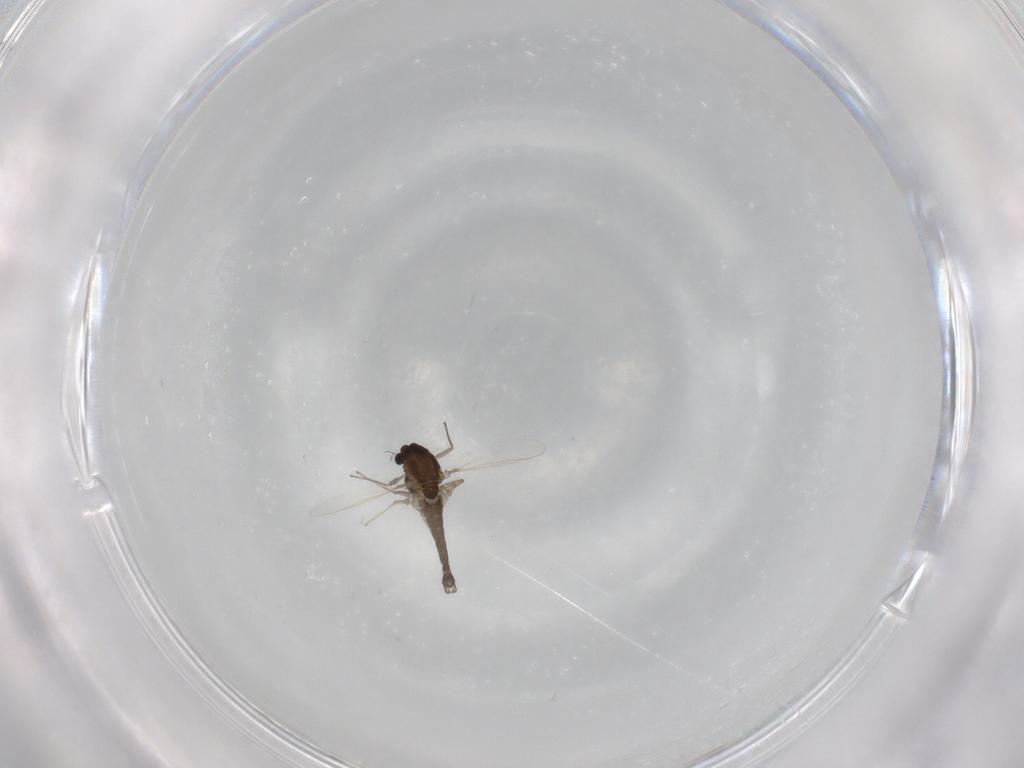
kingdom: Animalia
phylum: Arthropoda
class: Insecta
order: Diptera
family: Chironomidae
